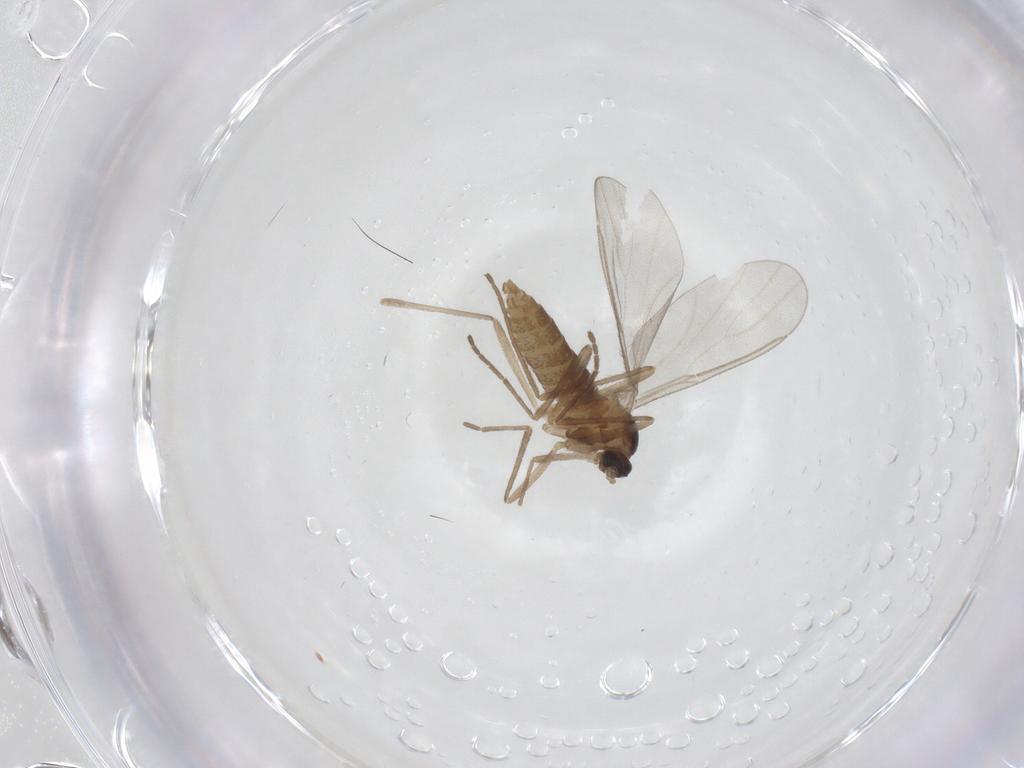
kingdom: Animalia
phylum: Arthropoda
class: Insecta
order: Diptera
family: Cecidomyiidae
